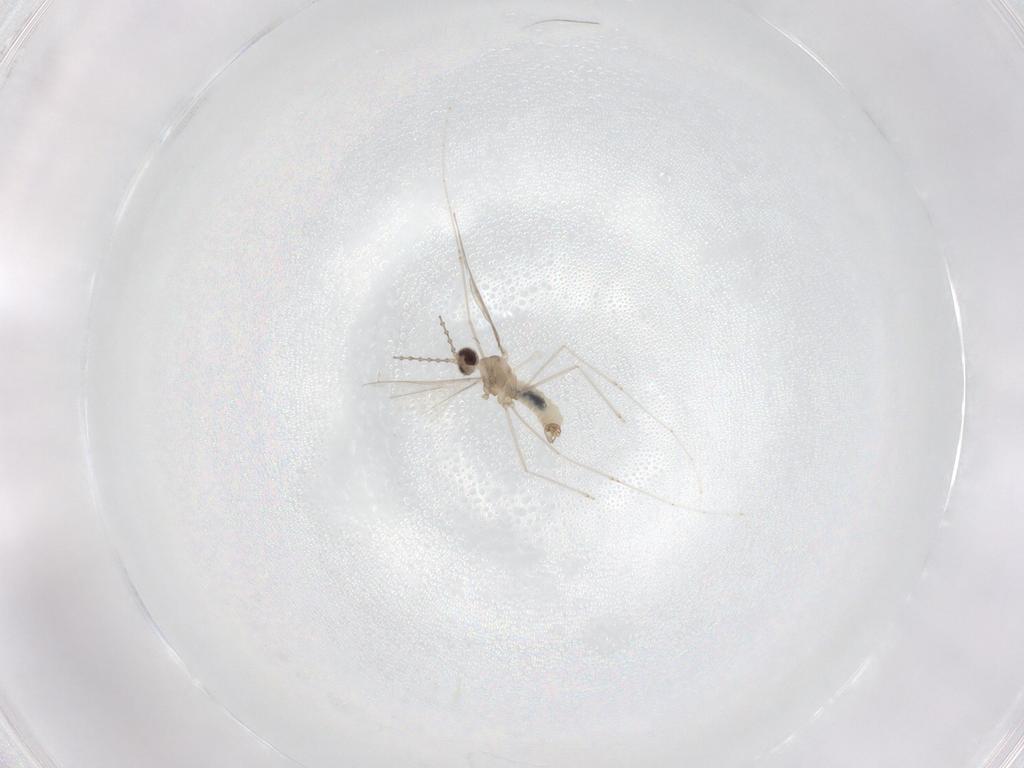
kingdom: Animalia
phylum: Arthropoda
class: Insecta
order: Diptera
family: Cecidomyiidae
